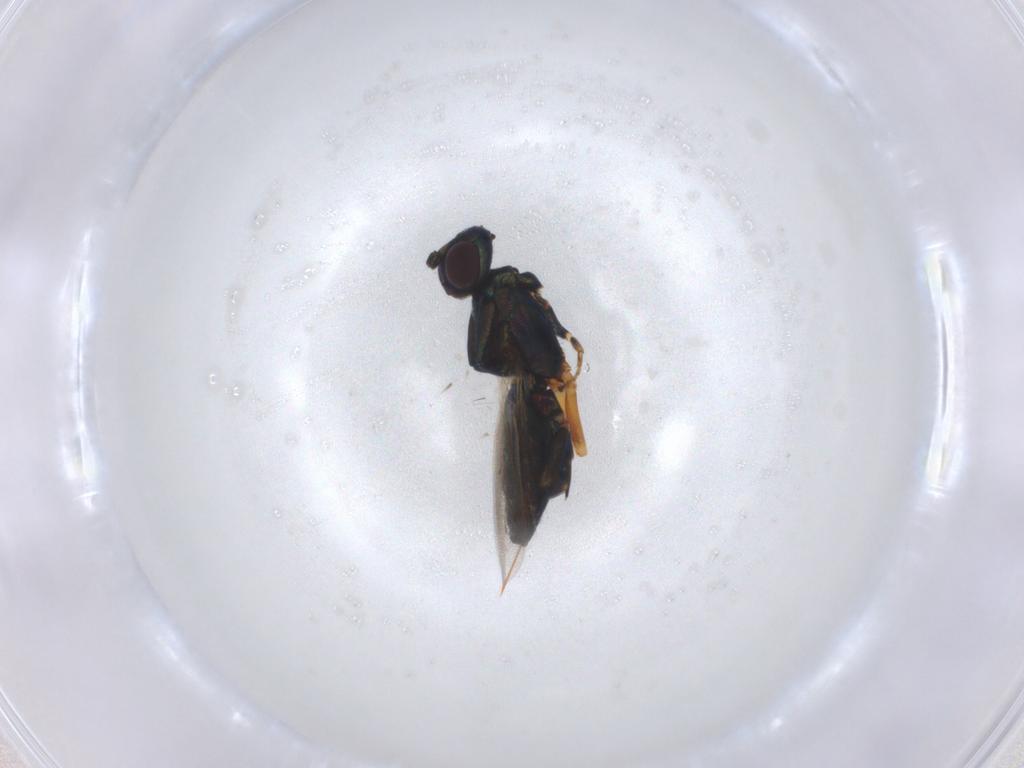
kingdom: Animalia
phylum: Arthropoda
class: Insecta
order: Hymenoptera
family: Eupelmidae
